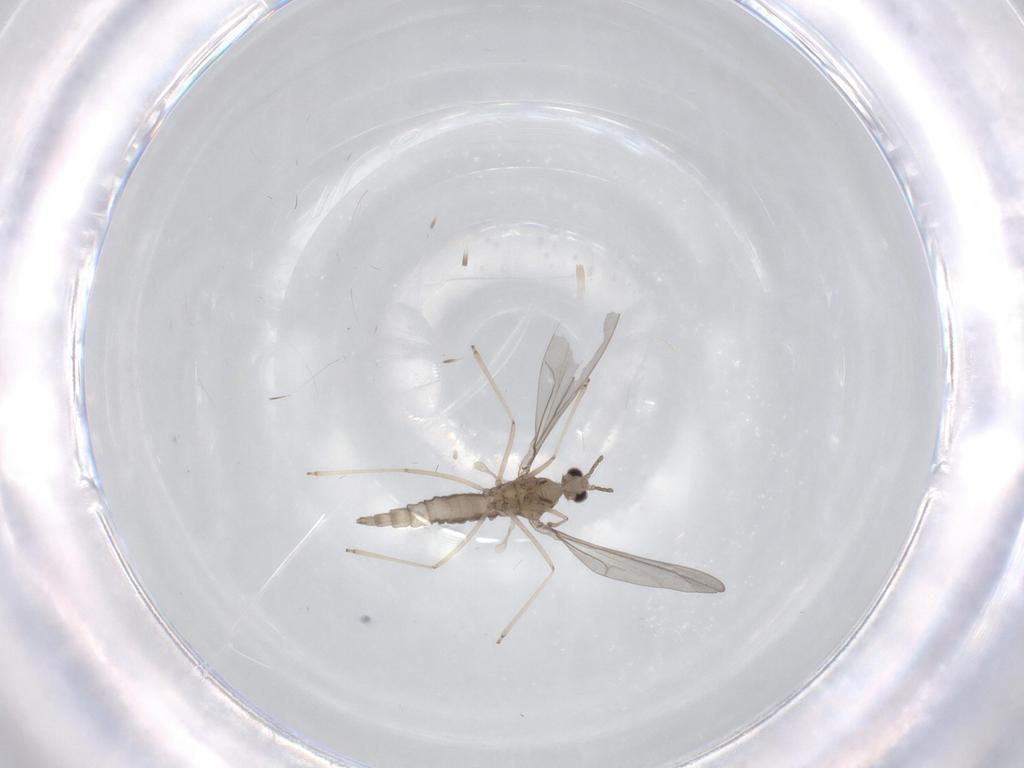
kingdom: Animalia
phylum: Arthropoda
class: Insecta
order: Diptera
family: Cecidomyiidae
